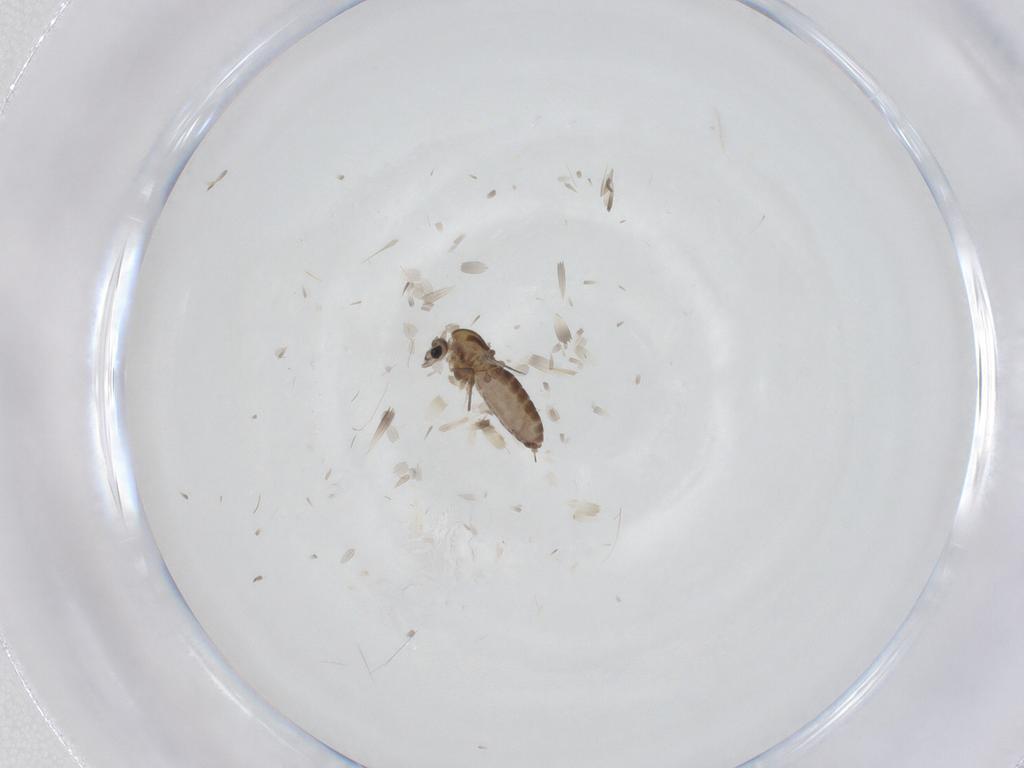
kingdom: Animalia
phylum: Arthropoda
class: Insecta
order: Diptera
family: Chironomidae
